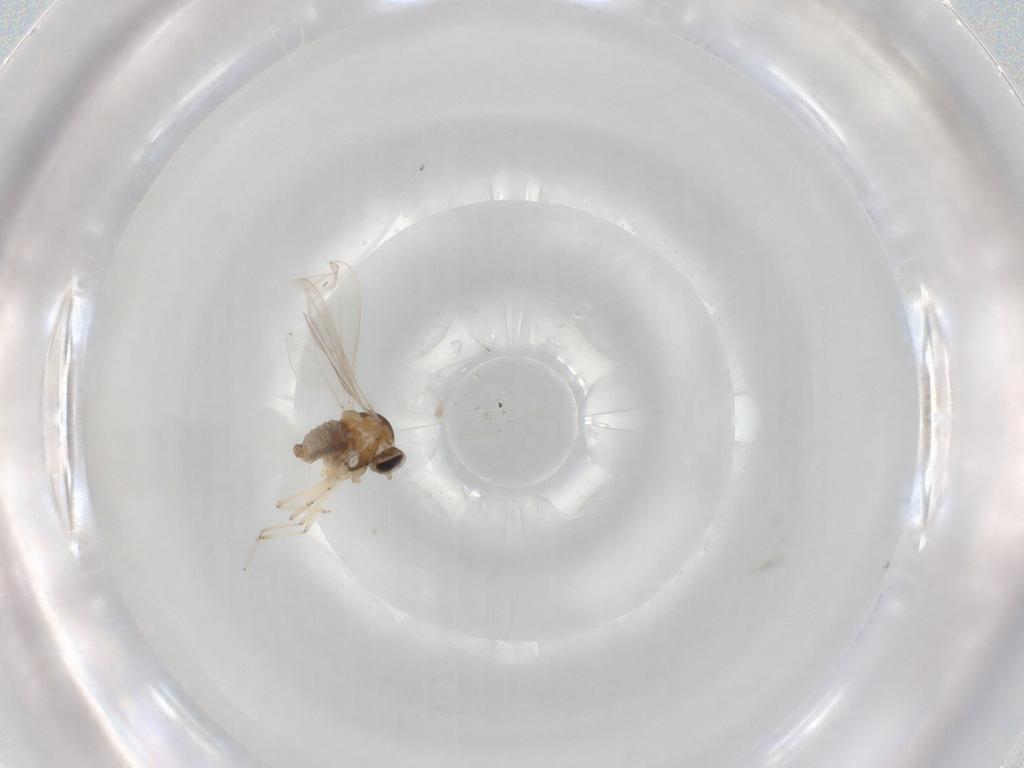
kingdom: Animalia
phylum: Arthropoda
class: Insecta
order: Diptera
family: Cecidomyiidae
